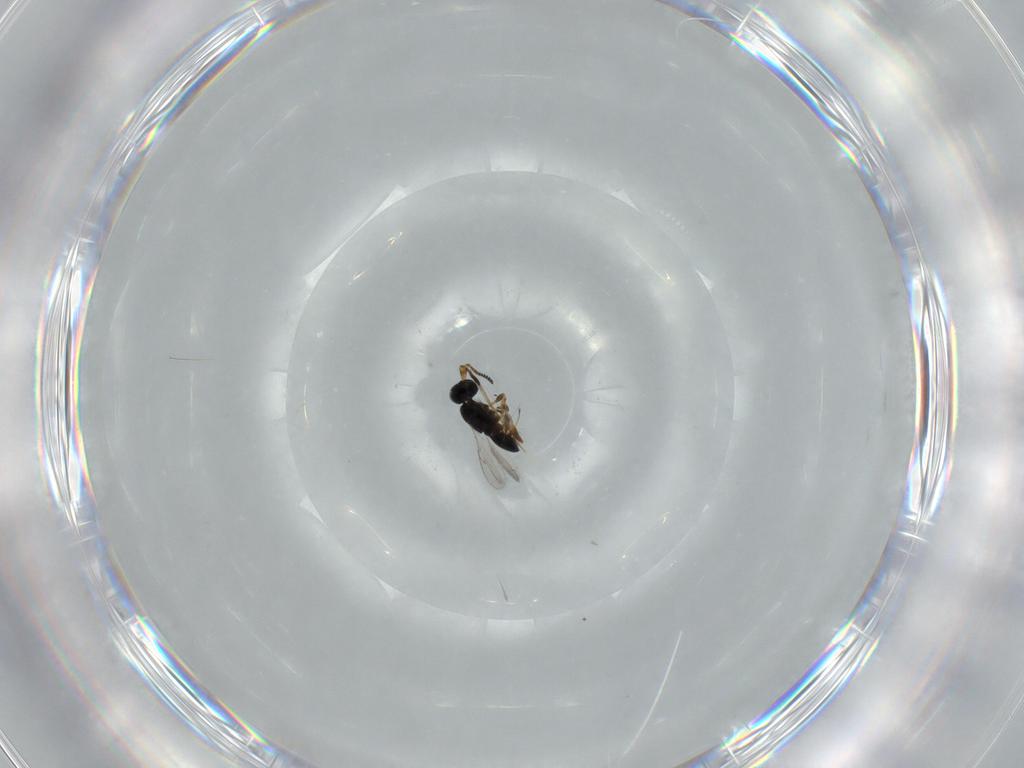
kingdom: Animalia
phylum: Arthropoda
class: Insecta
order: Hymenoptera
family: Scelionidae
